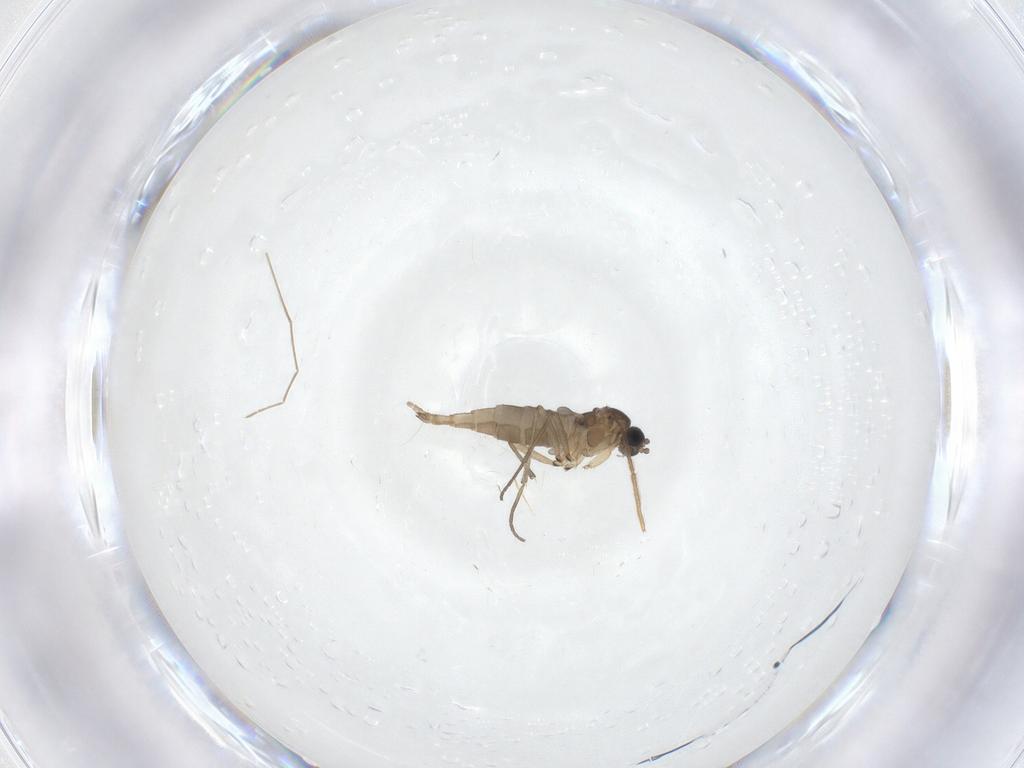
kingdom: Animalia
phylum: Arthropoda
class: Insecta
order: Diptera
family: Sciaridae
